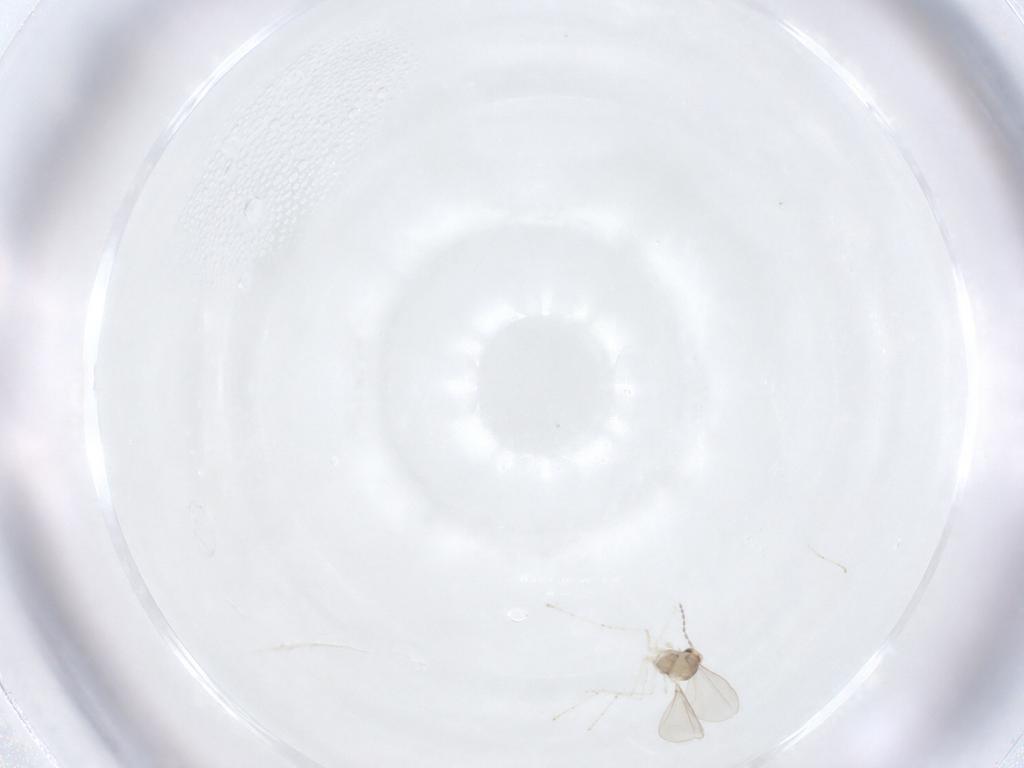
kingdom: Animalia
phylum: Arthropoda
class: Insecta
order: Diptera
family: Cecidomyiidae
